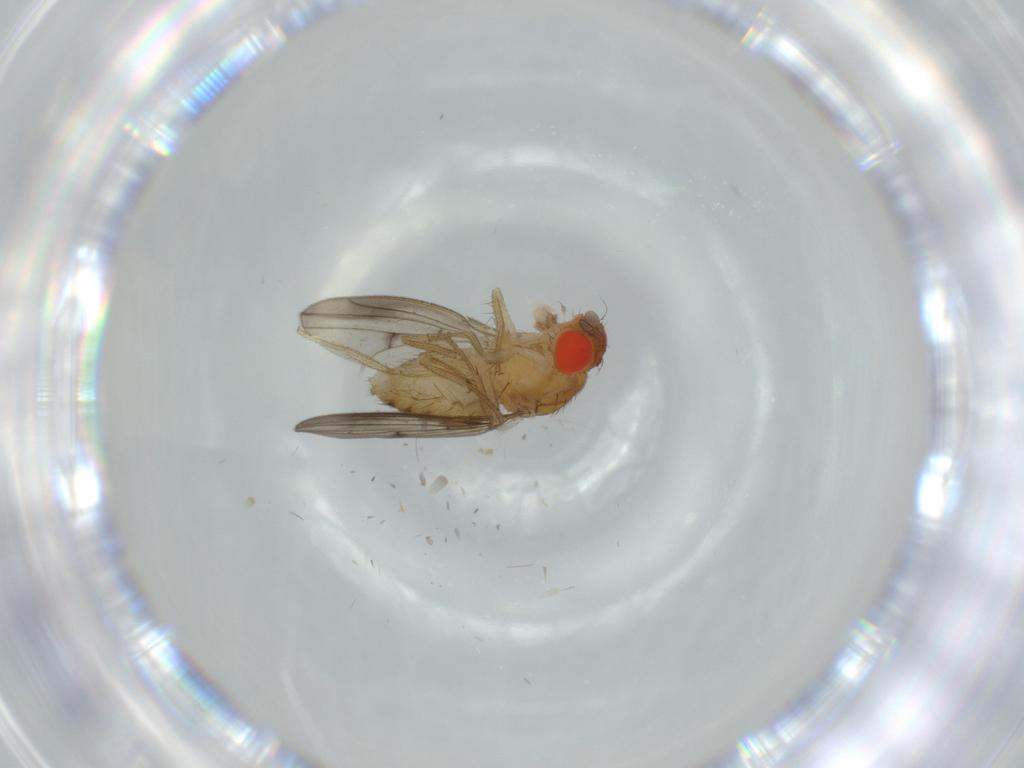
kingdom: Animalia
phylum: Arthropoda
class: Insecta
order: Diptera
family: Drosophilidae
